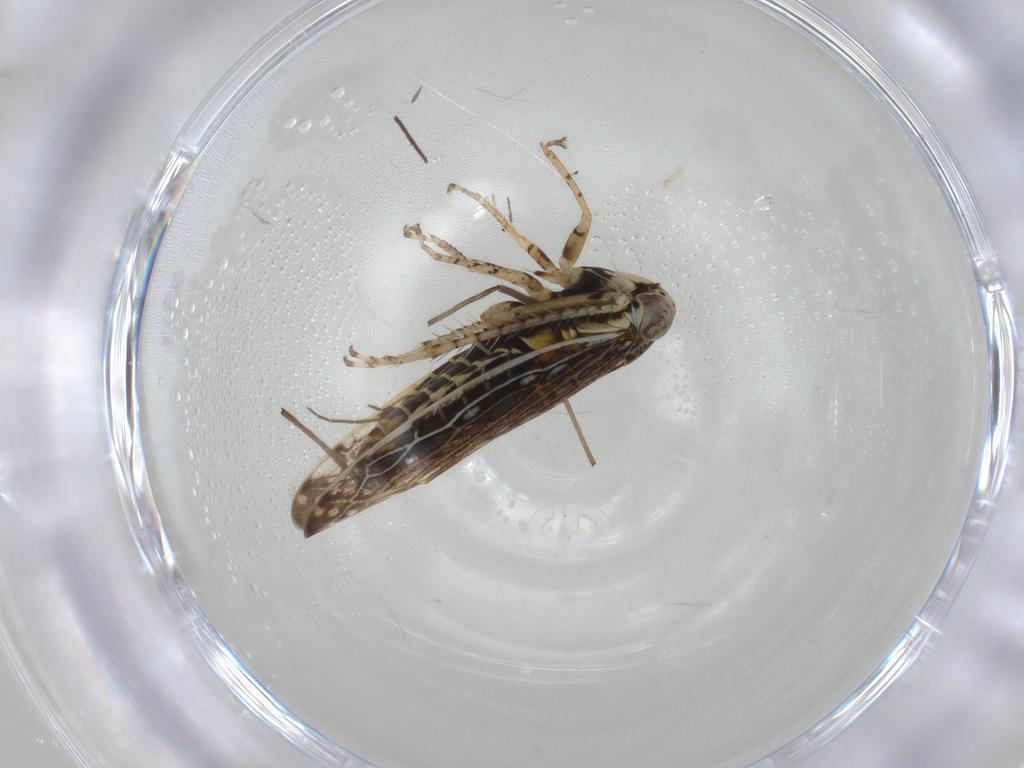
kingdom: Animalia
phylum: Arthropoda
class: Insecta
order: Hemiptera
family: Cicadellidae
